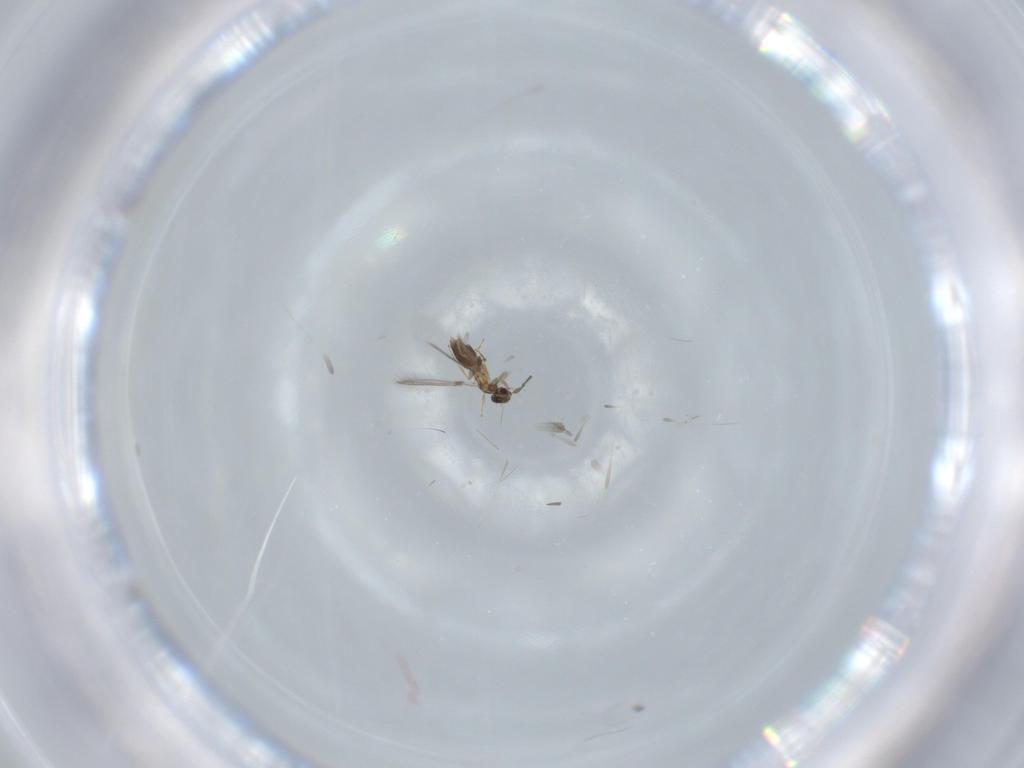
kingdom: Animalia
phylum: Arthropoda
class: Insecta
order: Hymenoptera
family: Mymaridae
